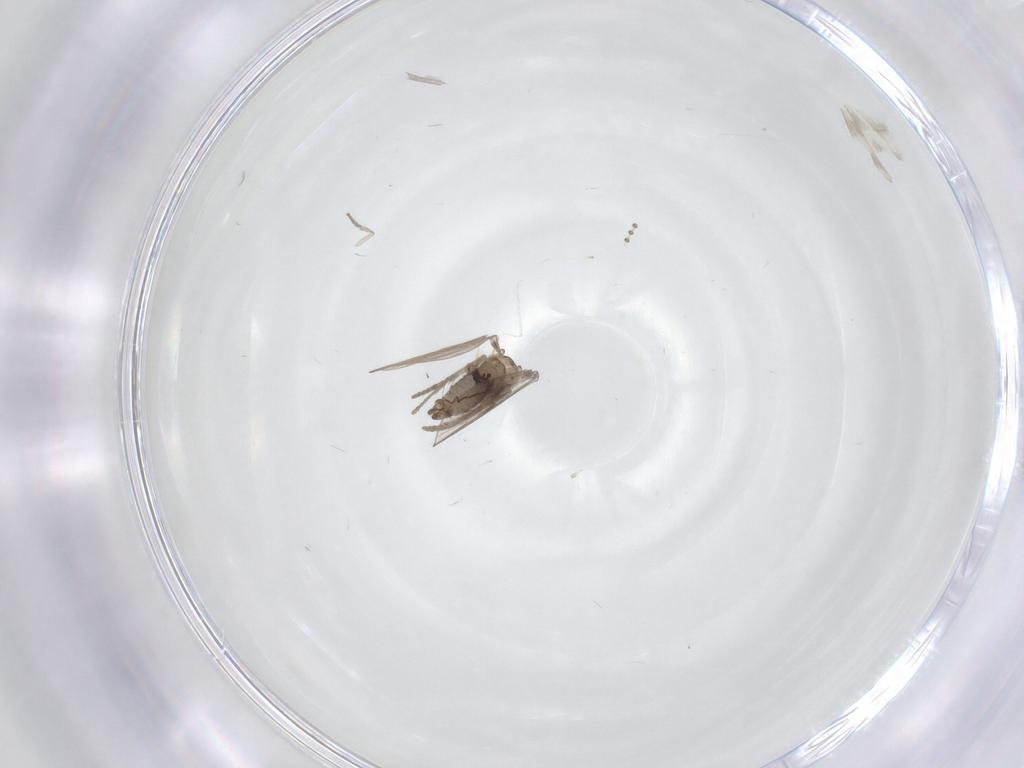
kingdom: Animalia
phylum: Arthropoda
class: Insecta
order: Diptera
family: Psychodidae
